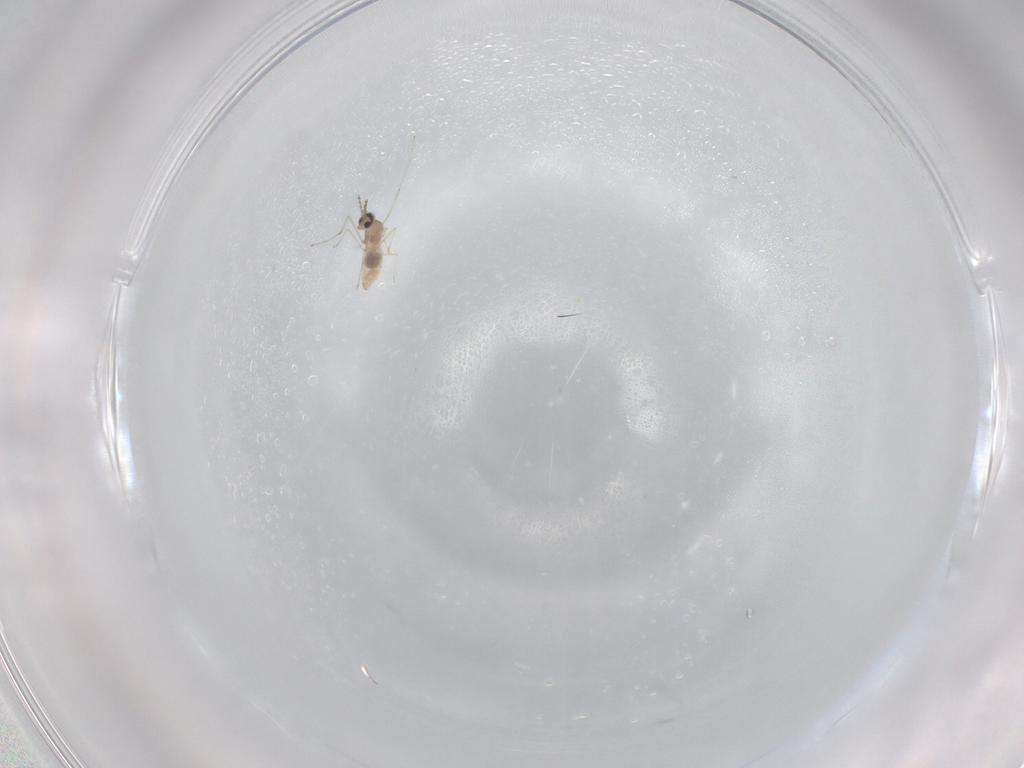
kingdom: Animalia
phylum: Arthropoda
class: Insecta
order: Diptera
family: Cecidomyiidae
